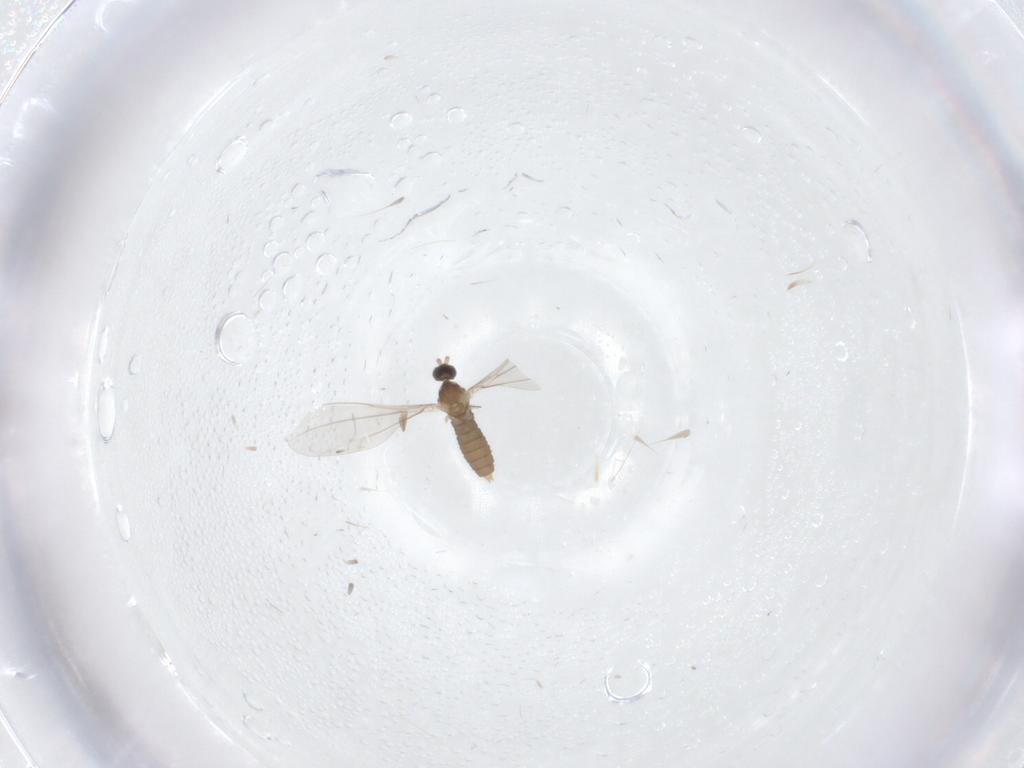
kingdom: Animalia
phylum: Arthropoda
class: Insecta
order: Diptera
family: Cecidomyiidae
